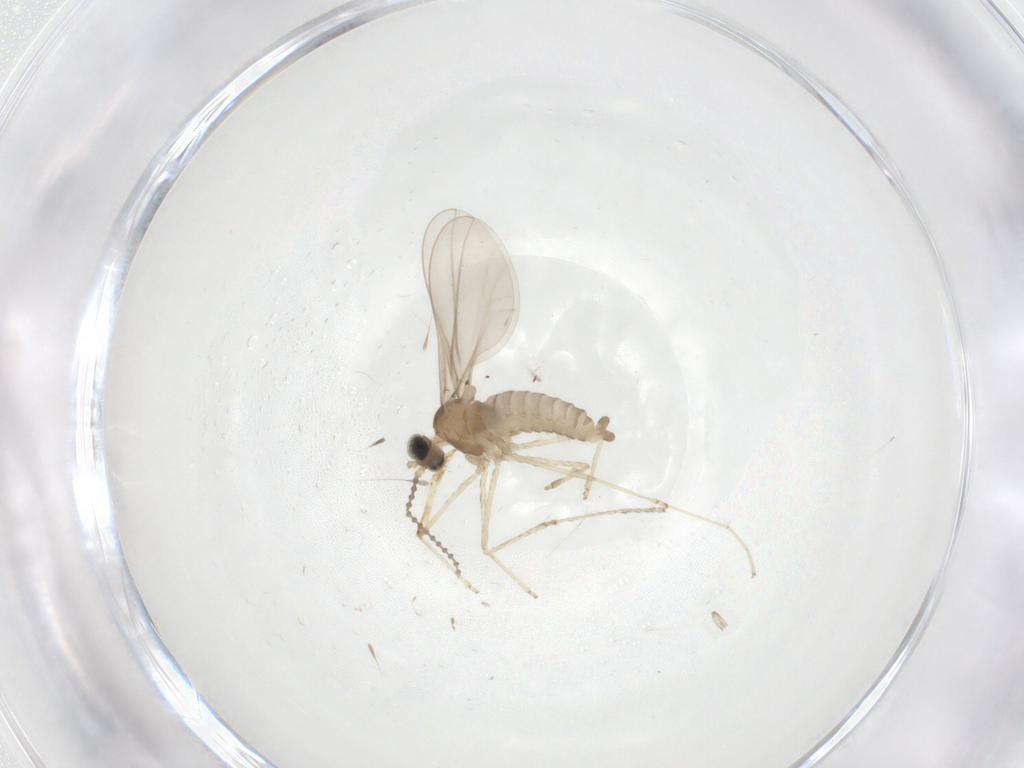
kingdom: Animalia
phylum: Arthropoda
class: Insecta
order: Diptera
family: Cecidomyiidae
